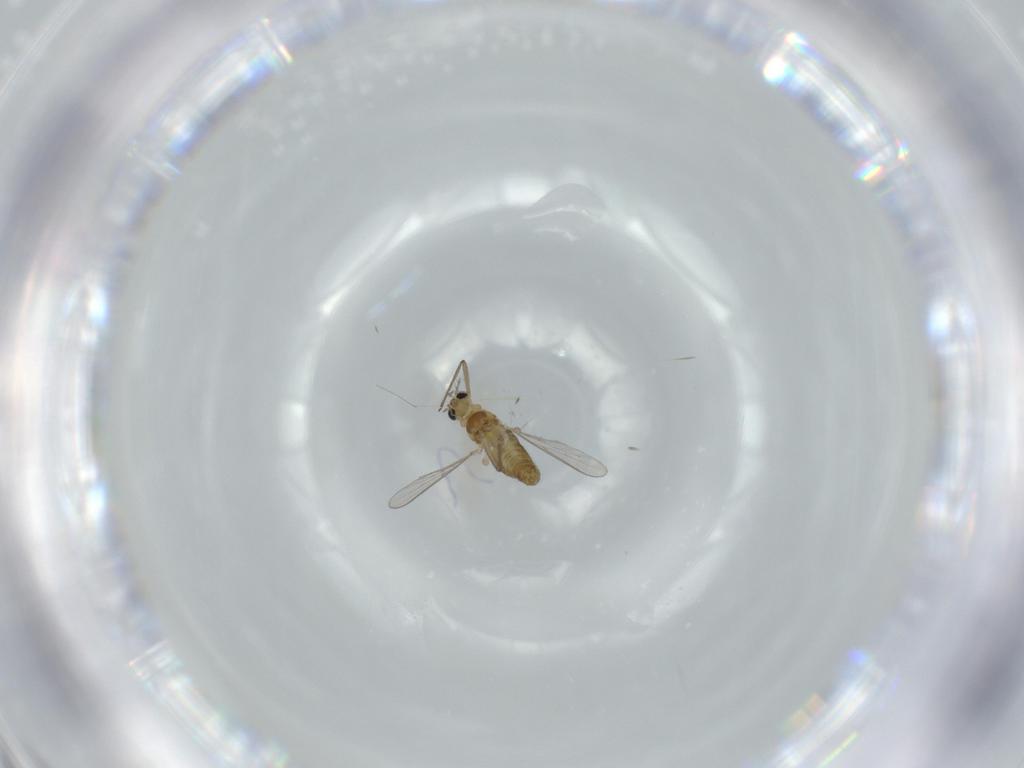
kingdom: Animalia
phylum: Arthropoda
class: Insecta
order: Diptera
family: Chironomidae
